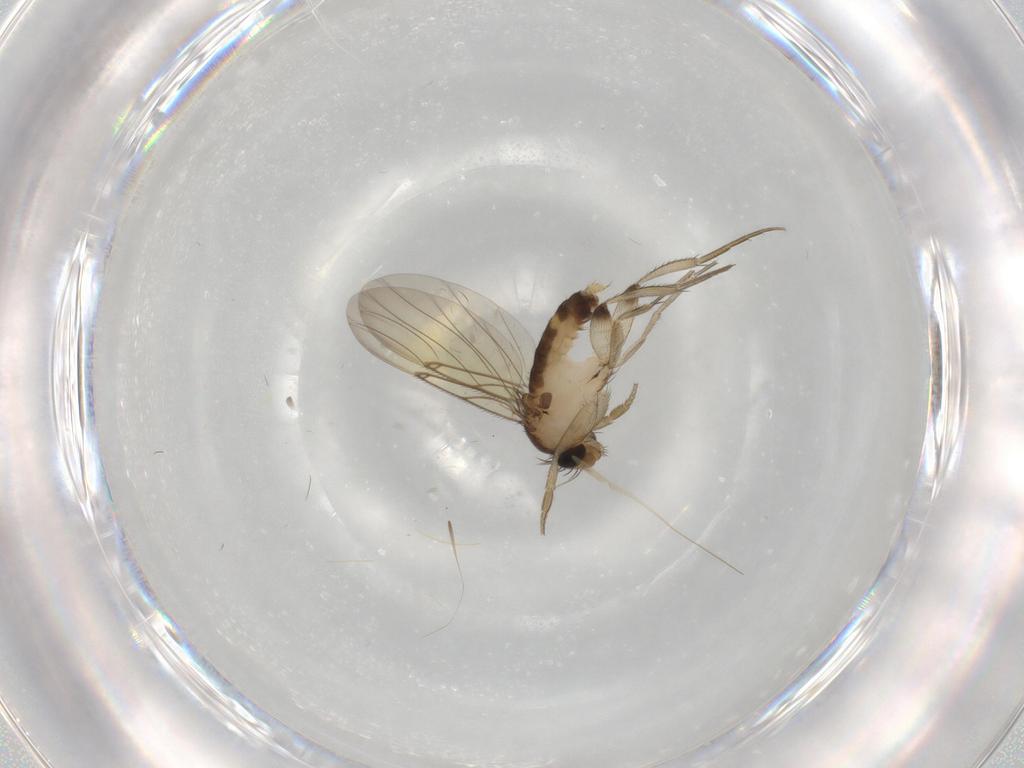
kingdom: Animalia
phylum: Arthropoda
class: Insecta
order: Diptera
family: Phoridae
